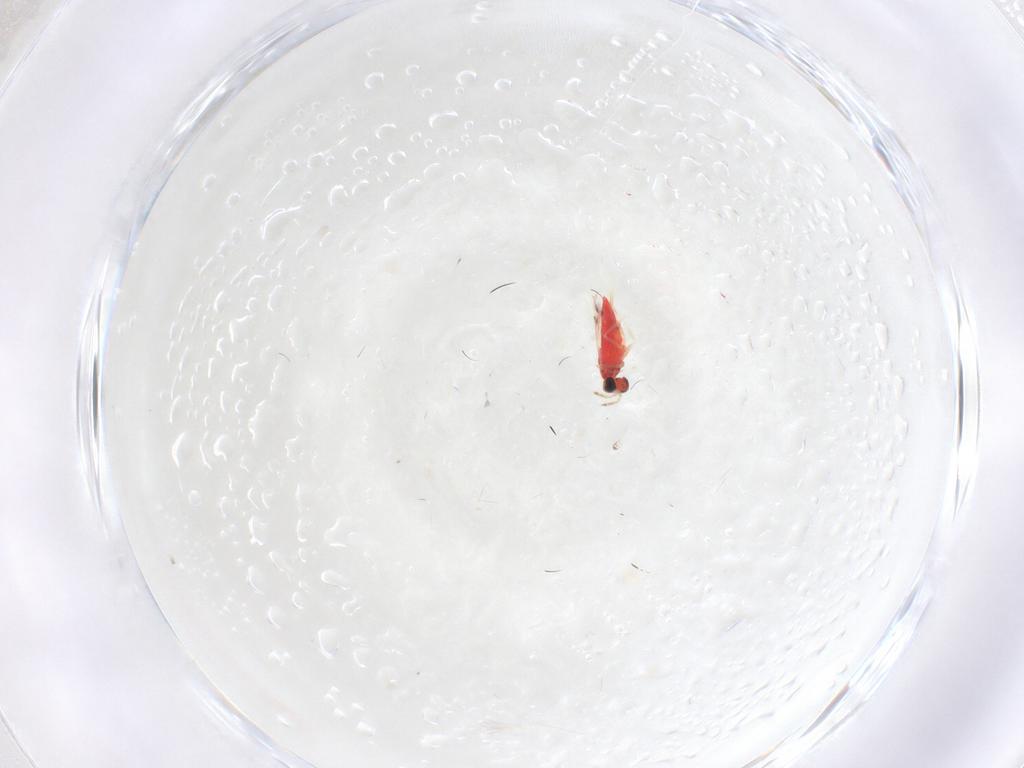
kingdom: Animalia
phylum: Arthropoda
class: Insecta
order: Hymenoptera
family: Trichogrammatidae
